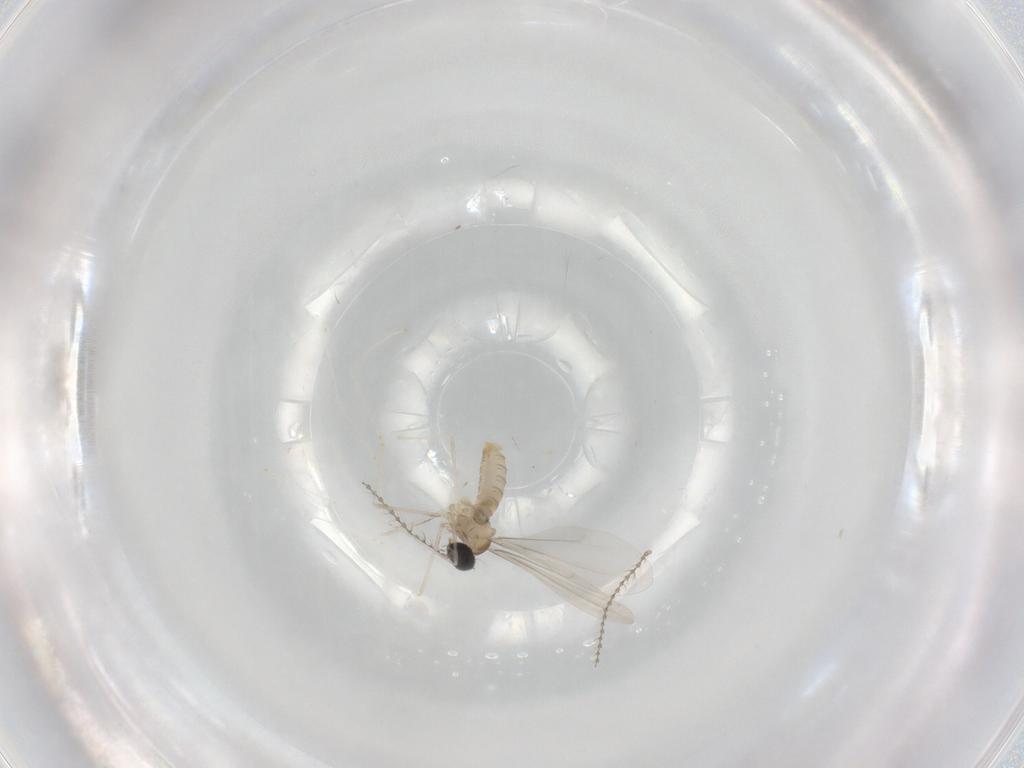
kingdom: Animalia
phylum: Arthropoda
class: Insecta
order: Diptera
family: Cecidomyiidae
